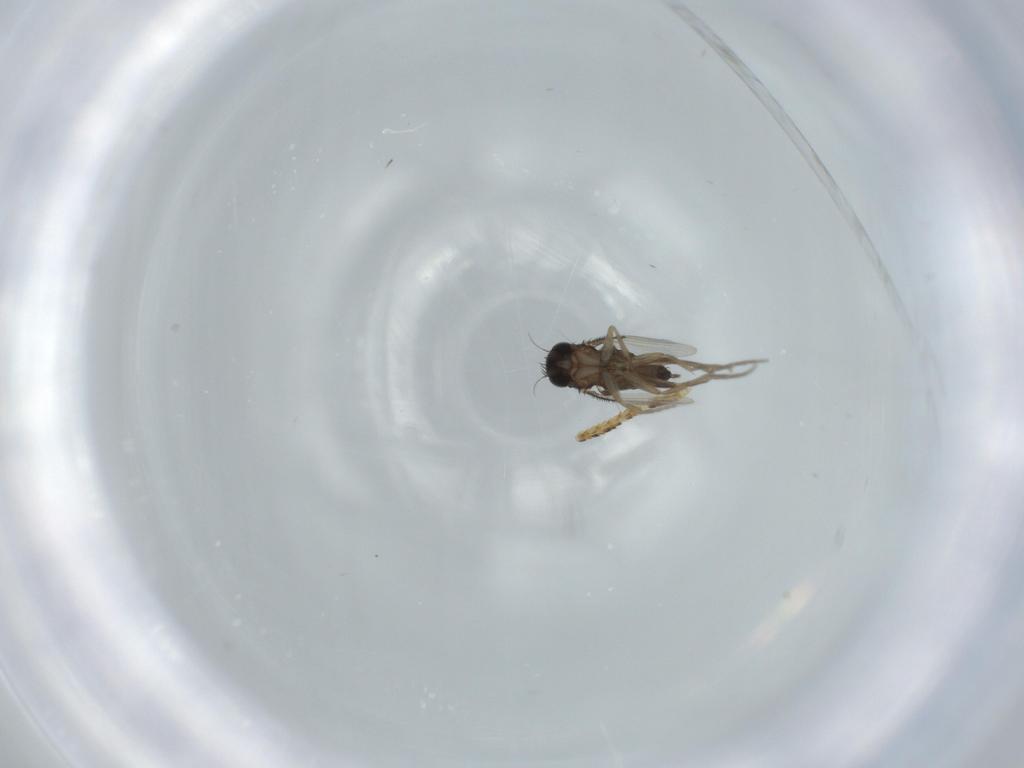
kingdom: Animalia
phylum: Arthropoda
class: Insecta
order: Diptera
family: Phoridae
